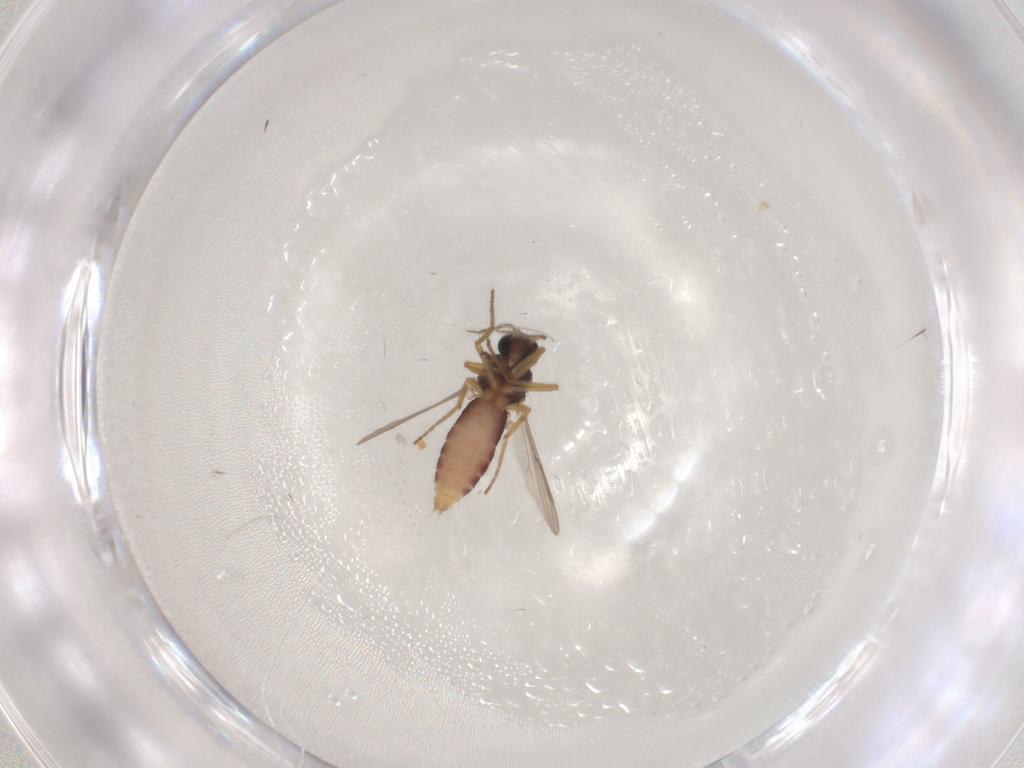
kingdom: Animalia
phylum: Arthropoda
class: Insecta
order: Diptera
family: Ceratopogonidae
